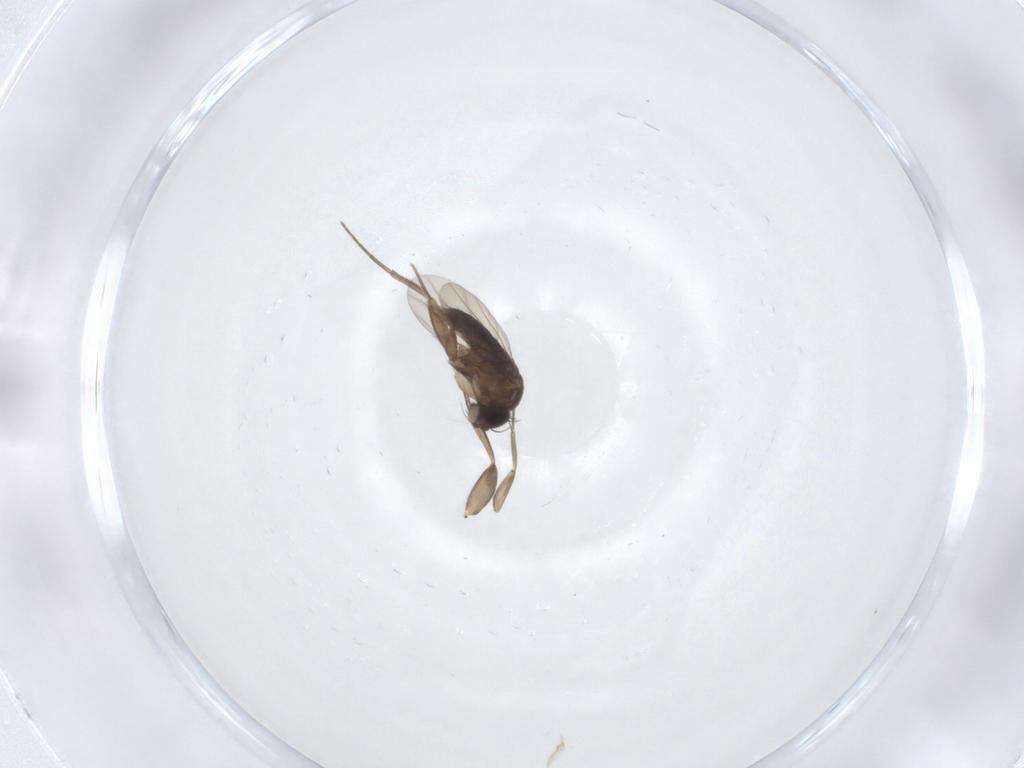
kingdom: Animalia
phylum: Arthropoda
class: Insecta
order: Diptera
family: Phoridae
